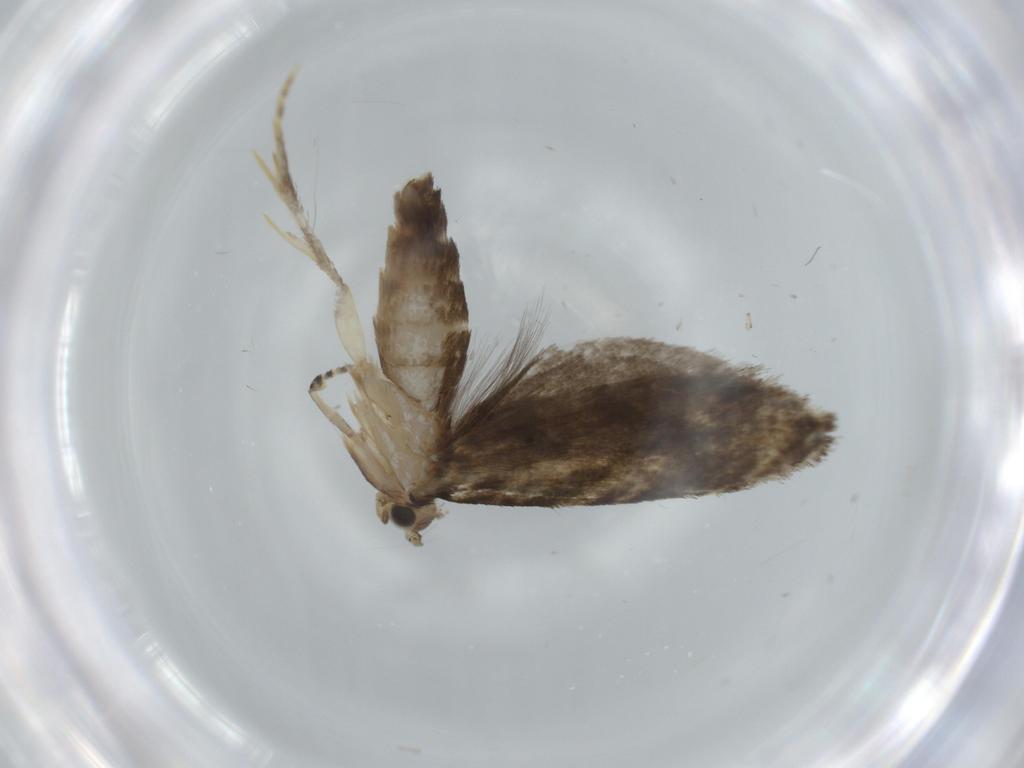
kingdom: Animalia
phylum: Arthropoda
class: Insecta
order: Lepidoptera
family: Tineidae
